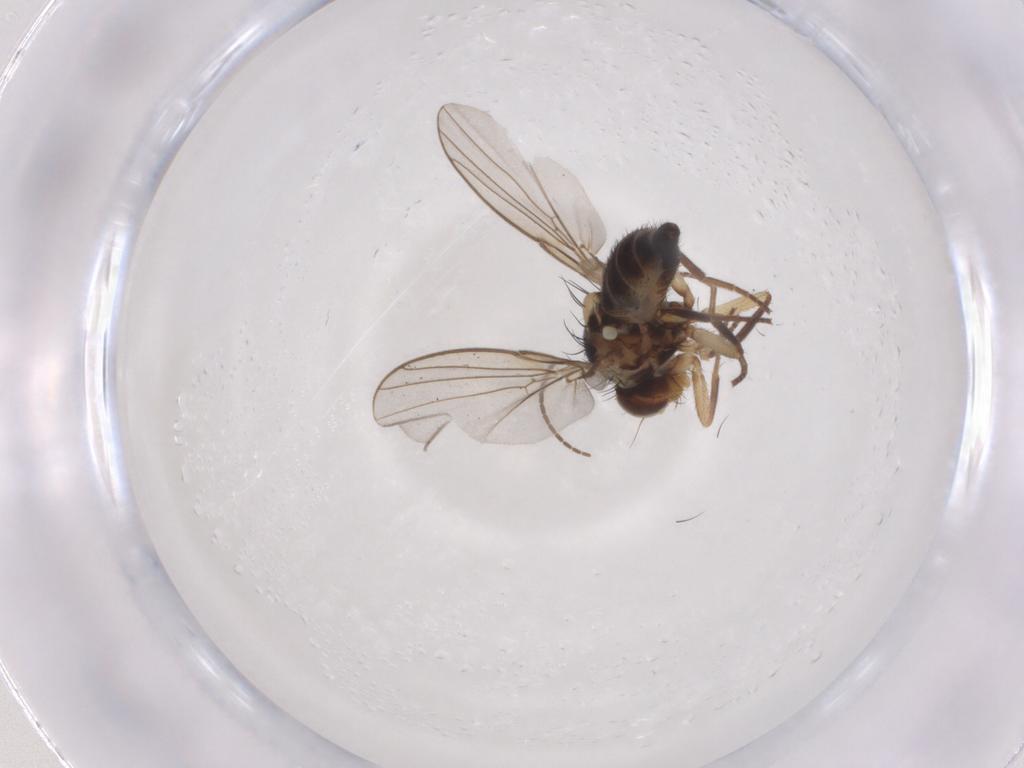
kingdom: Animalia
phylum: Arthropoda
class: Insecta
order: Diptera
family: Agromyzidae
